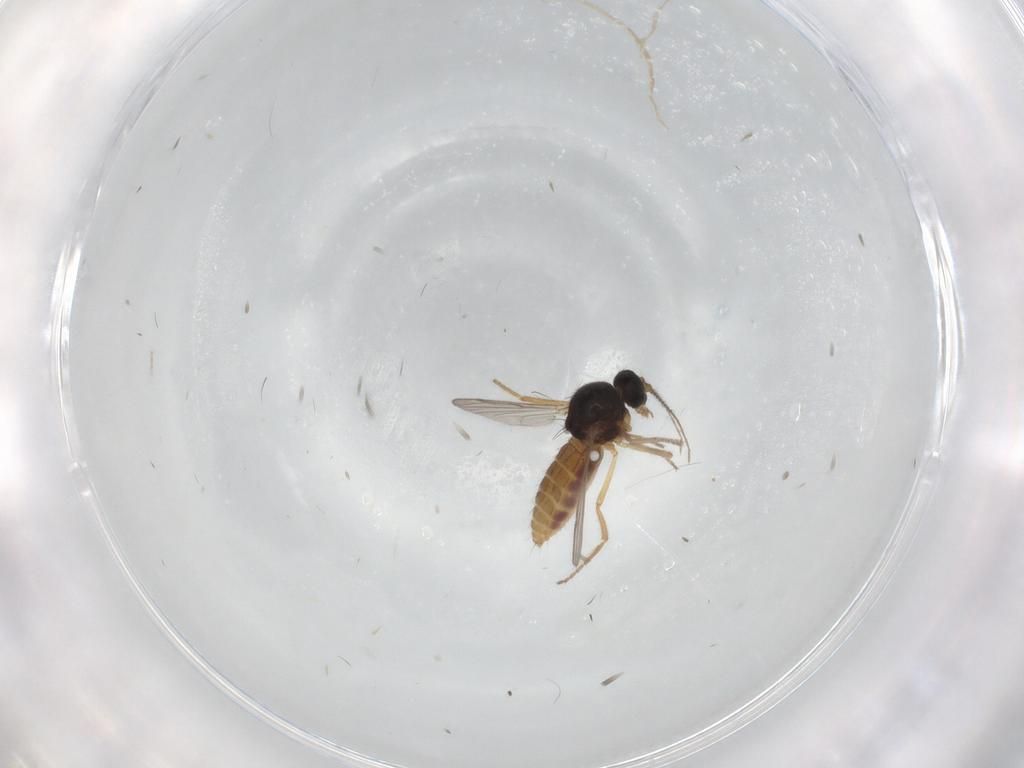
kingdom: Animalia
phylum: Arthropoda
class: Insecta
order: Diptera
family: Ceratopogonidae
